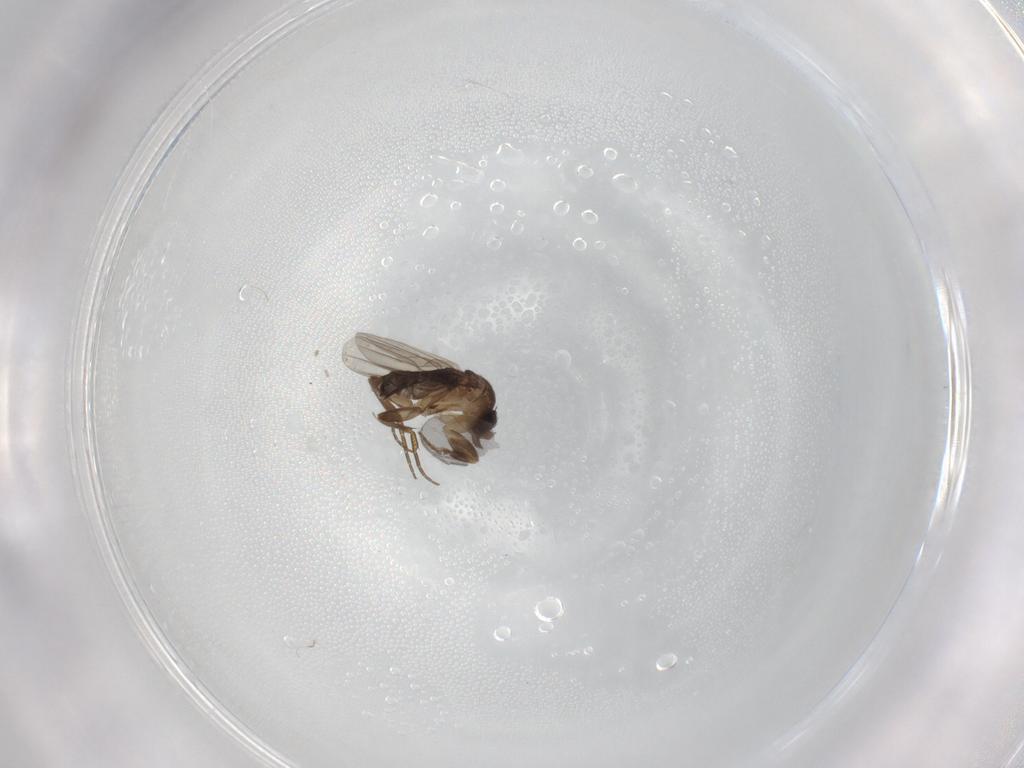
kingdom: Animalia
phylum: Arthropoda
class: Insecta
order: Diptera
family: Sciaridae
